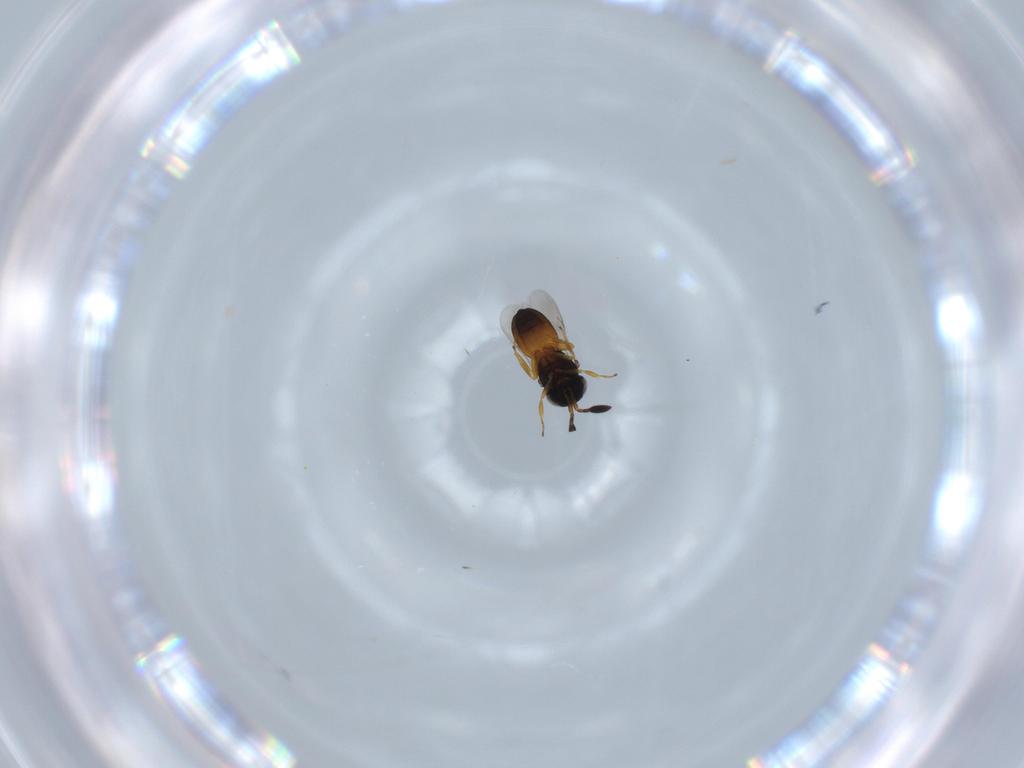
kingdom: Animalia
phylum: Arthropoda
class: Insecta
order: Hymenoptera
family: Scelionidae
